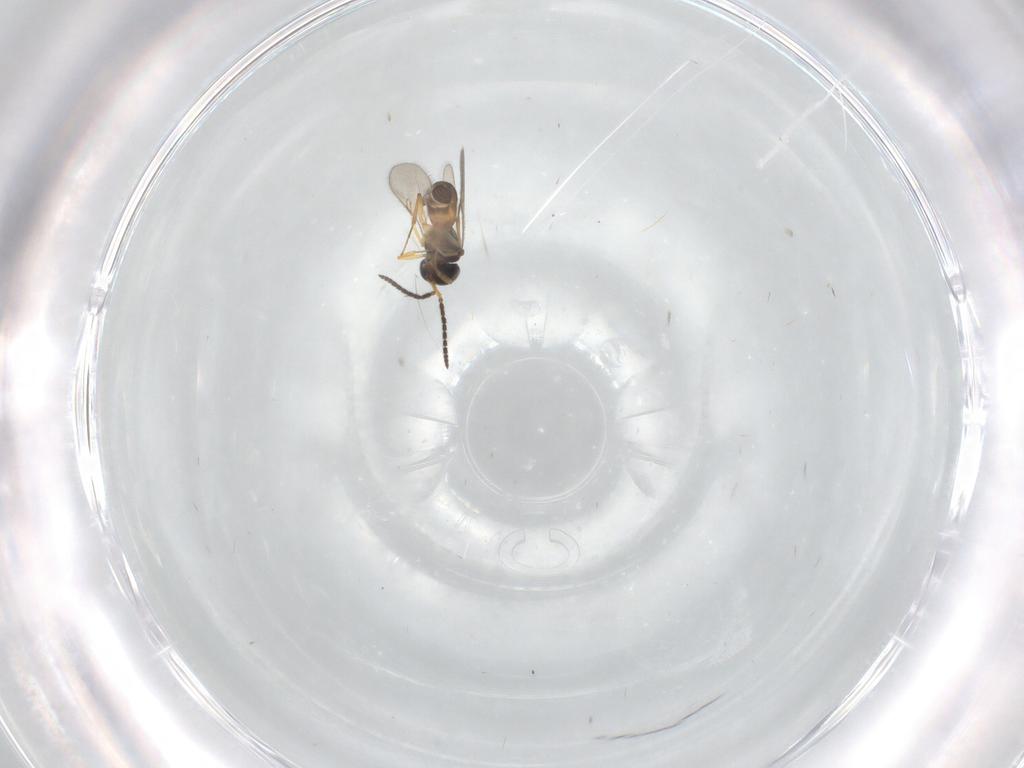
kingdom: Animalia
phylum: Arthropoda
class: Insecta
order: Hymenoptera
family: Scelionidae
